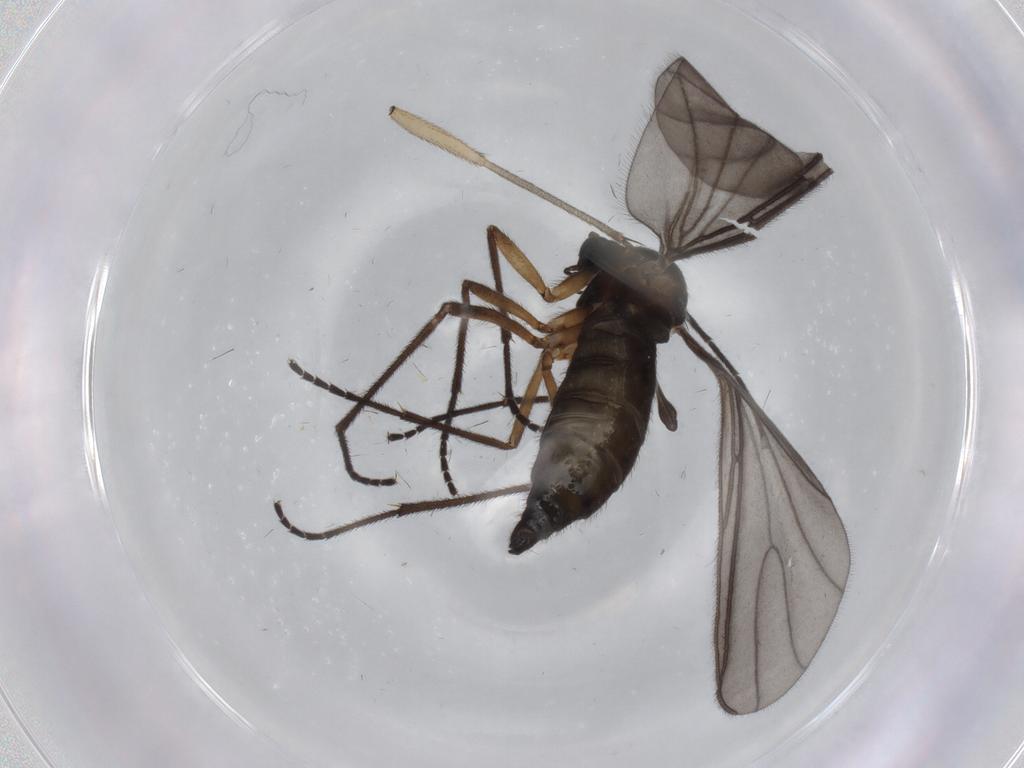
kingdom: Animalia
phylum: Arthropoda
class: Insecta
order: Diptera
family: Sciaridae
